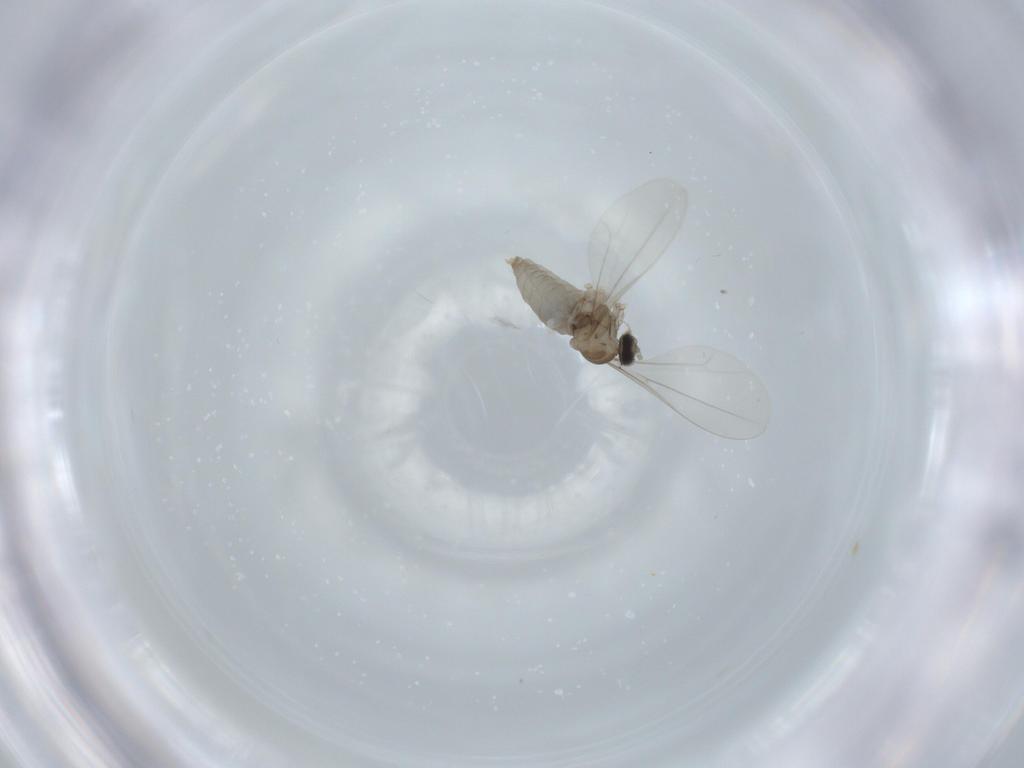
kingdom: Animalia
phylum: Arthropoda
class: Insecta
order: Diptera
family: Cecidomyiidae
